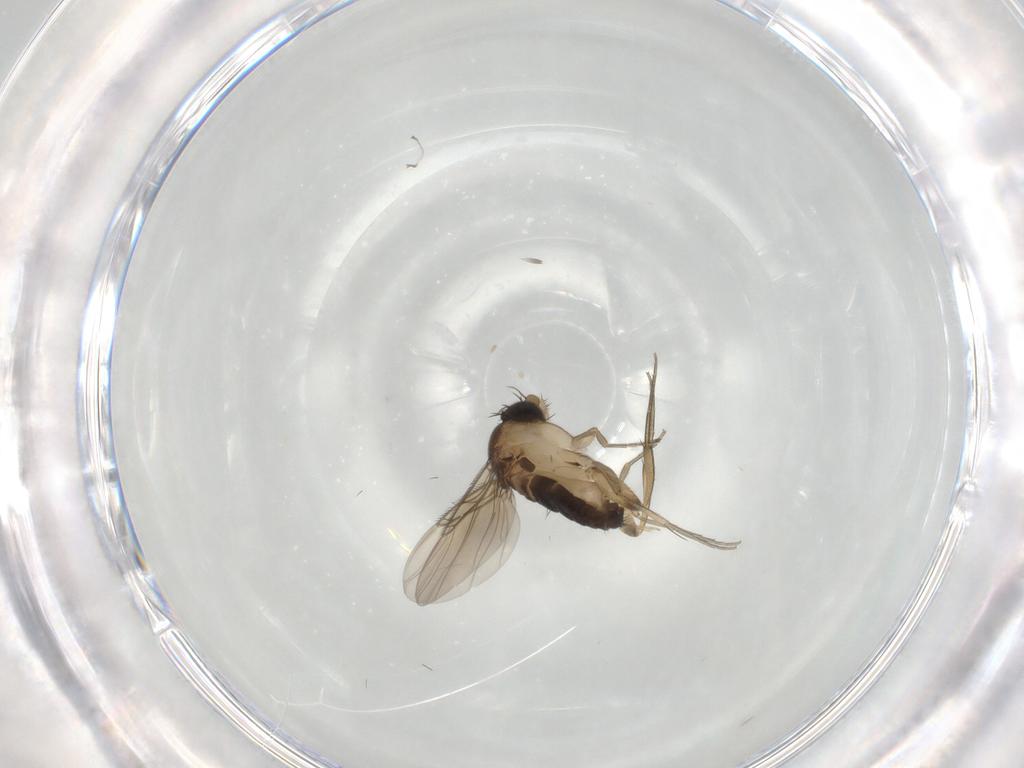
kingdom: Animalia
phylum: Arthropoda
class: Insecta
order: Diptera
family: Phoridae
